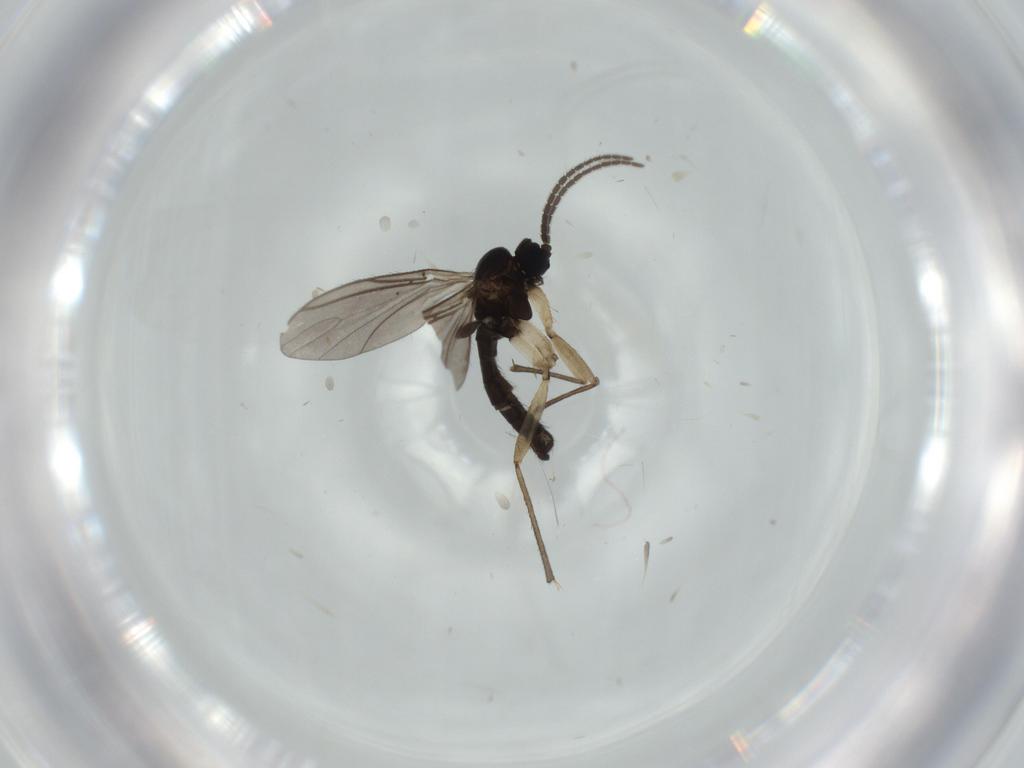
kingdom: Animalia
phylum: Arthropoda
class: Insecta
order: Diptera
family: Sciaridae
